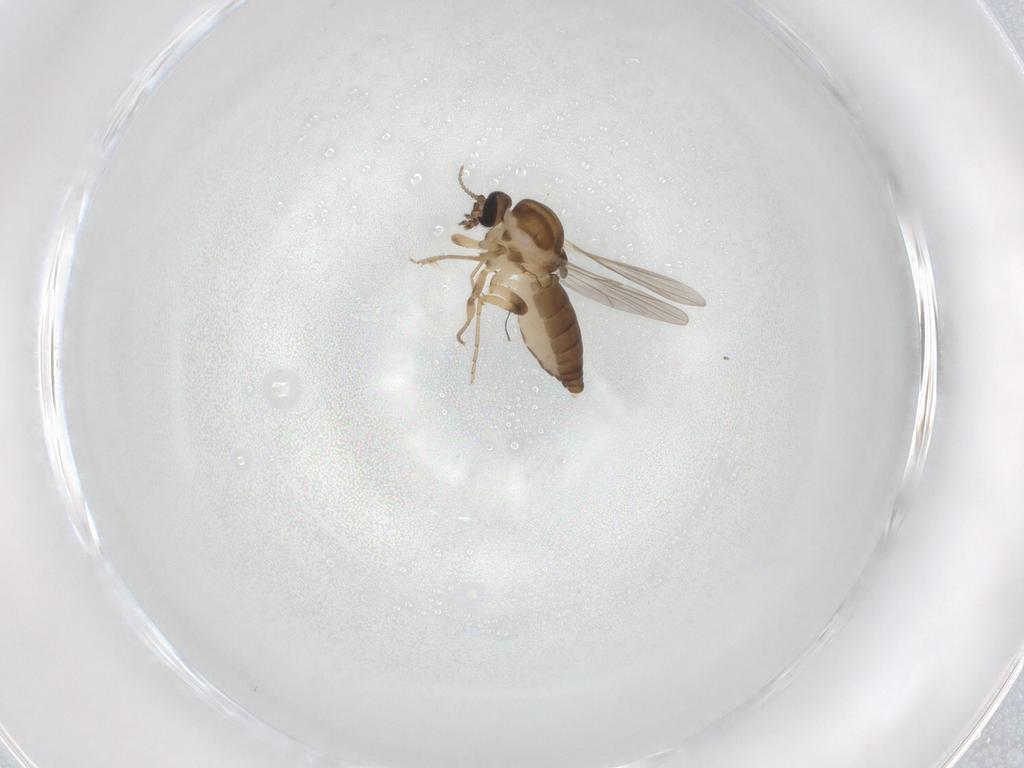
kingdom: Animalia
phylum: Arthropoda
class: Insecta
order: Diptera
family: Ceratopogonidae
